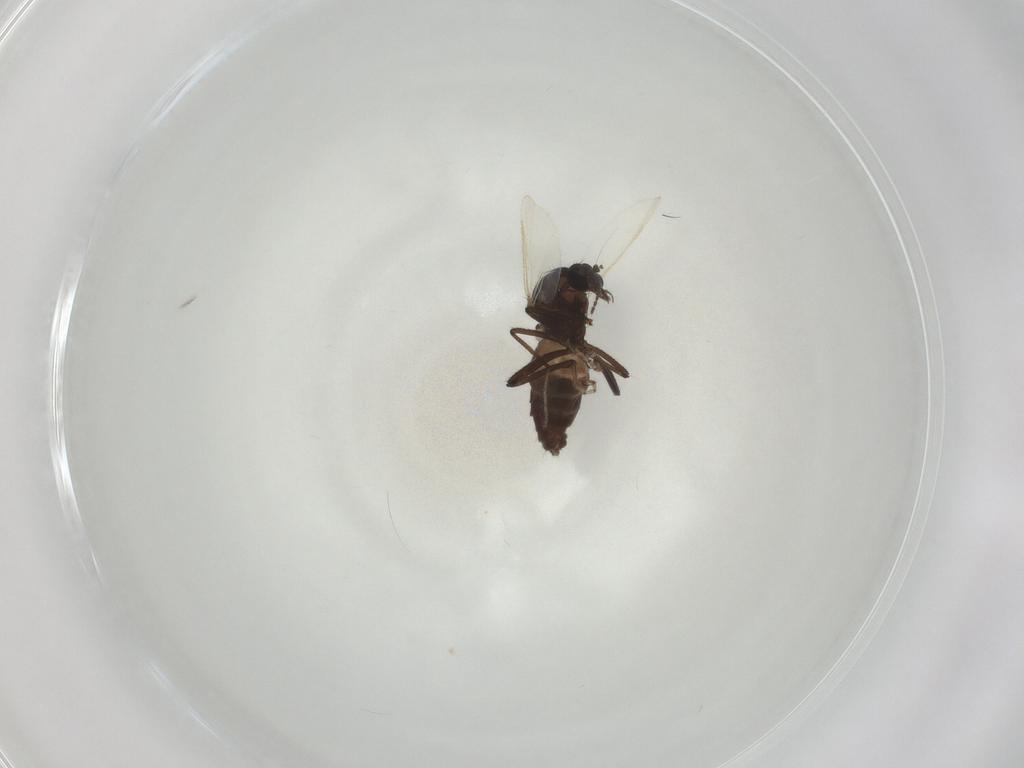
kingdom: Animalia
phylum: Arthropoda
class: Insecta
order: Diptera
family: Ceratopogonidae
